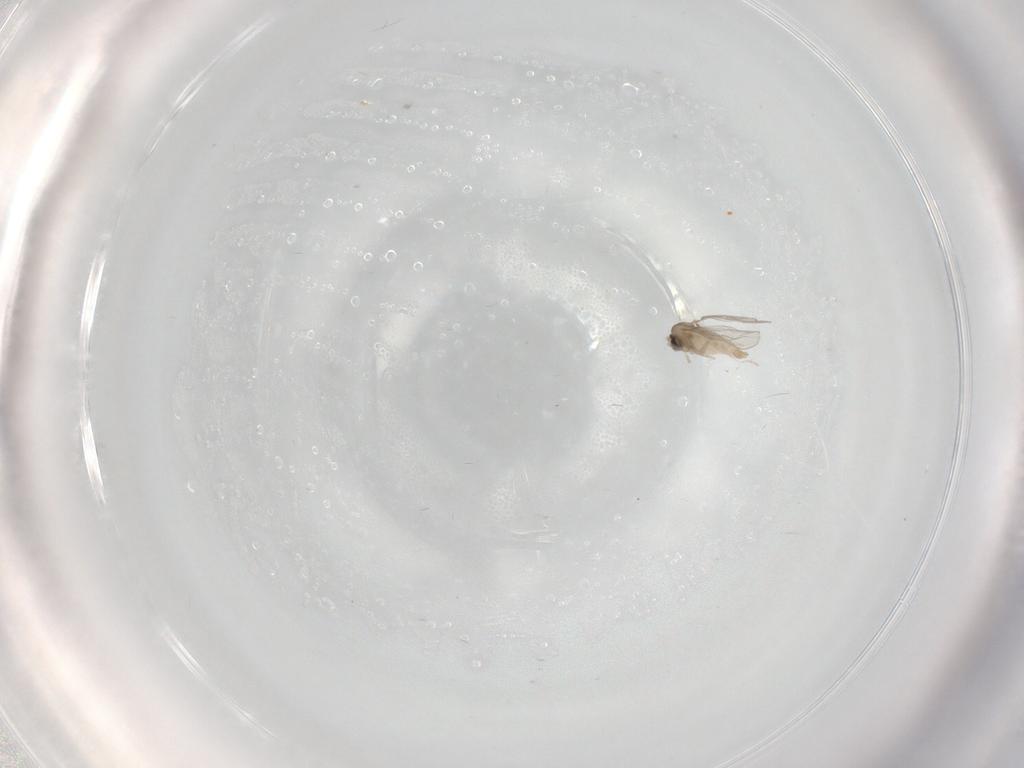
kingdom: Animalia
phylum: Arthropoda
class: Insecta
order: Diptera
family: Cecidomyiidae
